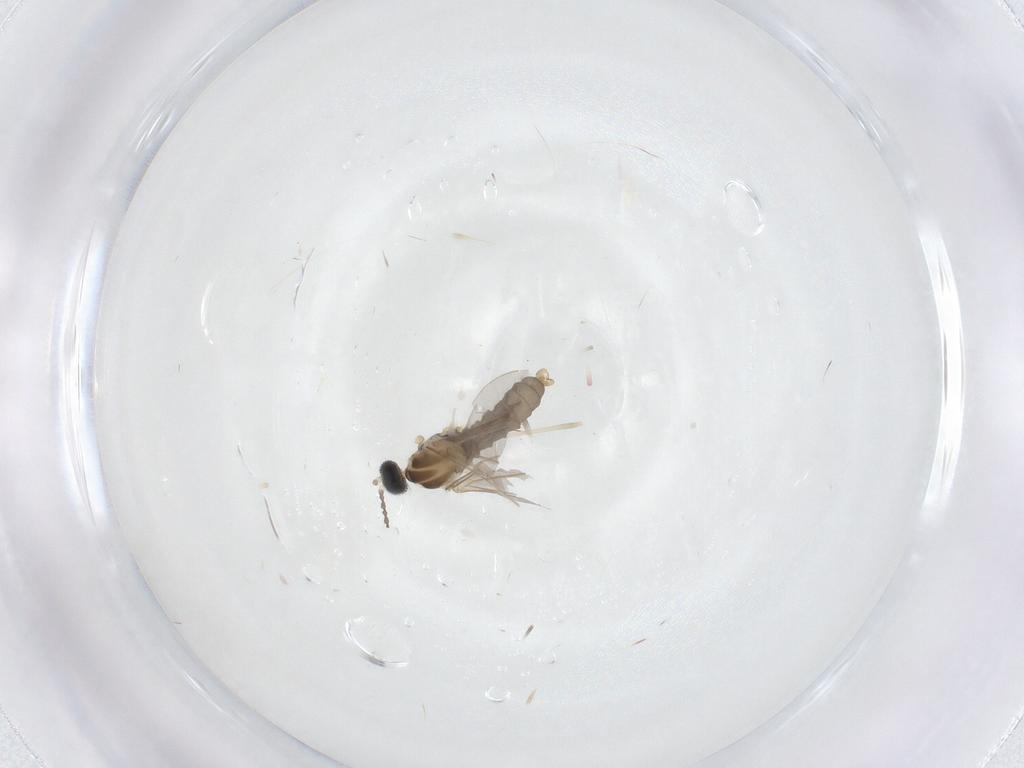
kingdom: Animalia
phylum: Arthropoda
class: Insecta
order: Diptera
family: Cecidomyiidae
